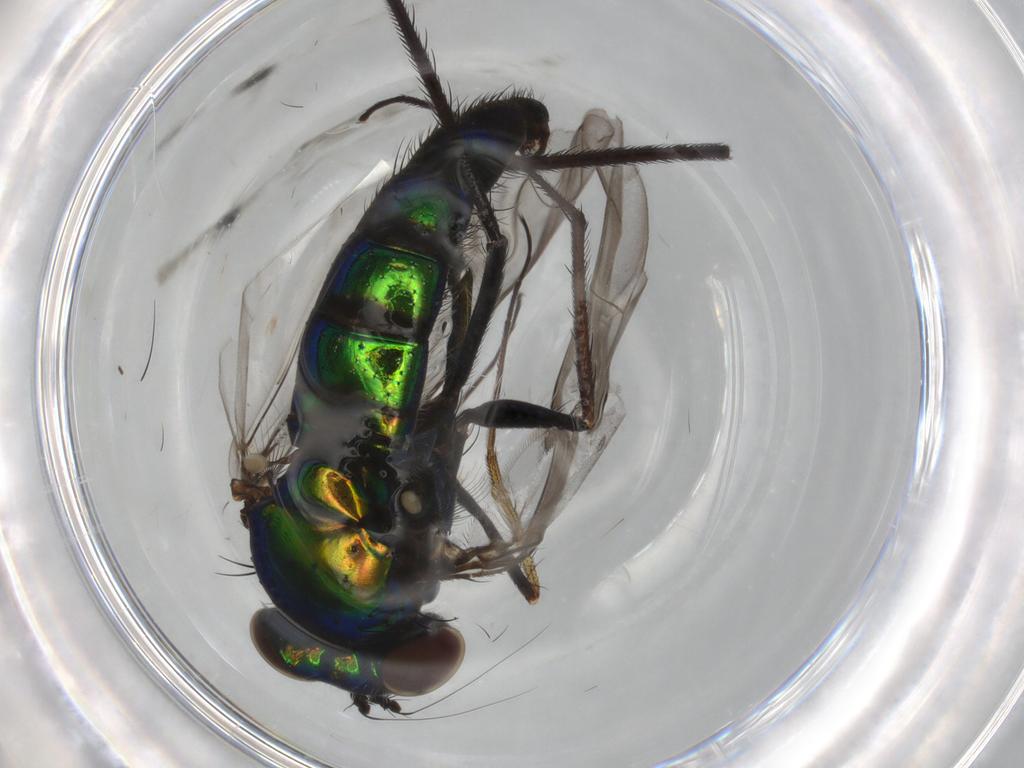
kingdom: Animalia
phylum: Arthropoda
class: Insecta
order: Diptera
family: Dolichopodidae
